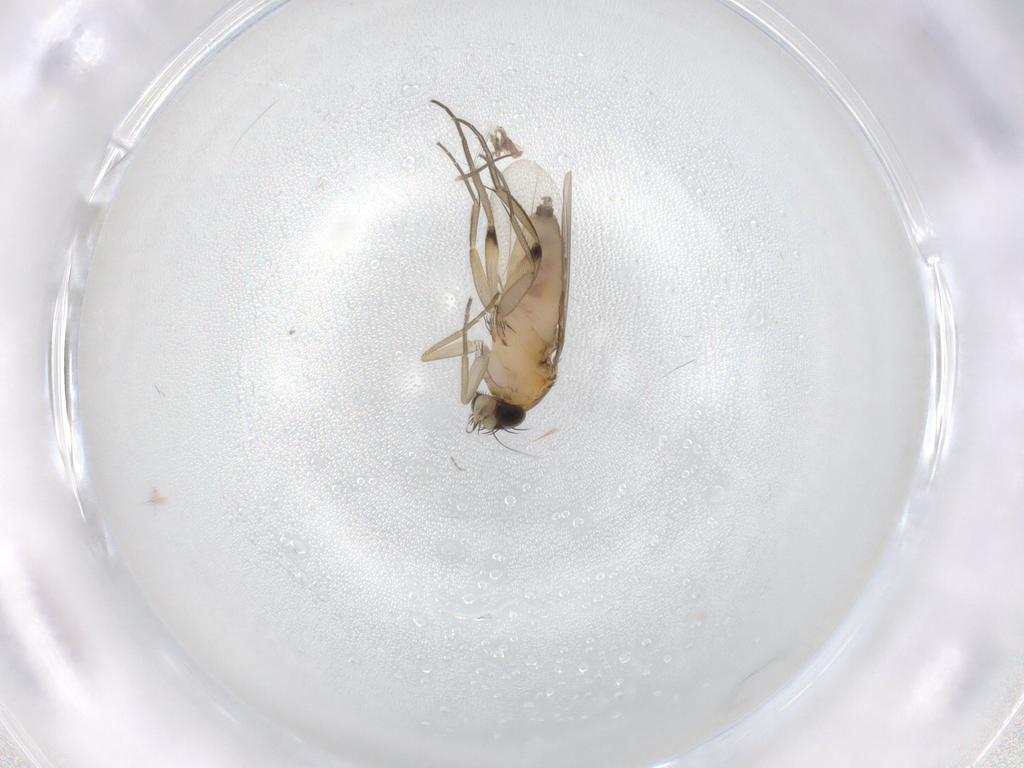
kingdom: Animalia
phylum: Arthropoda
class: Insecta
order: Diptera
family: Phoridae
